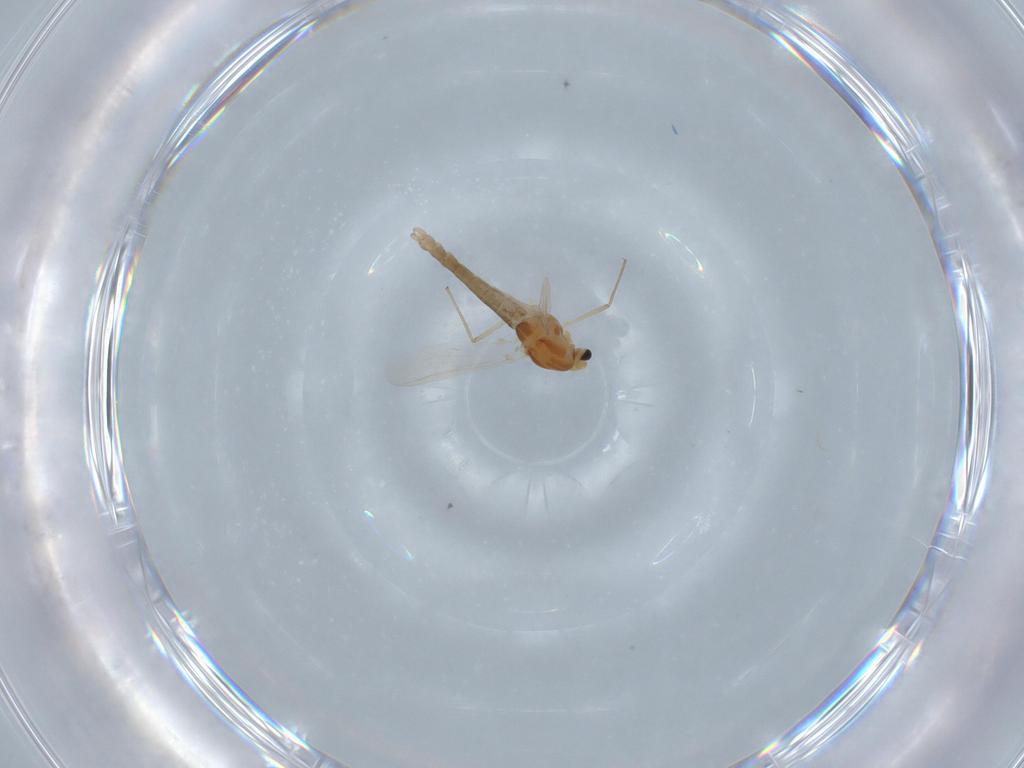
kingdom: Animalia
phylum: Arthropoda
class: Insecta
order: Diptera
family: Chironomidae
